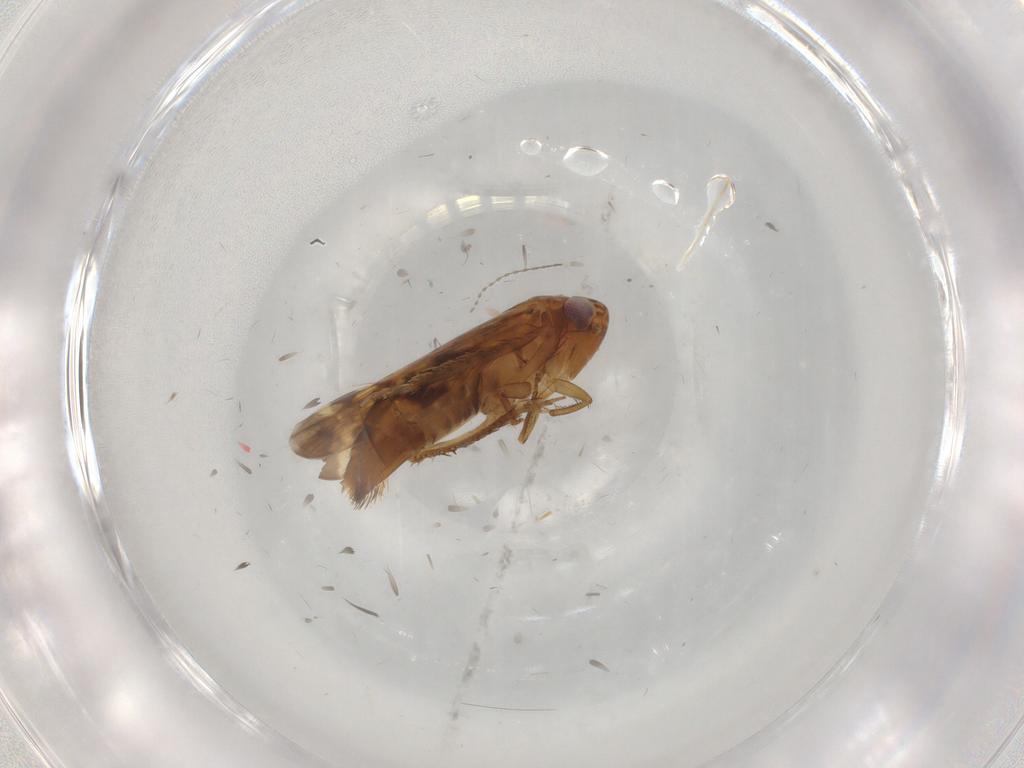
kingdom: Animalia
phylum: Arthropoda
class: Insecta
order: Hemiptera
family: Cicadellidae
